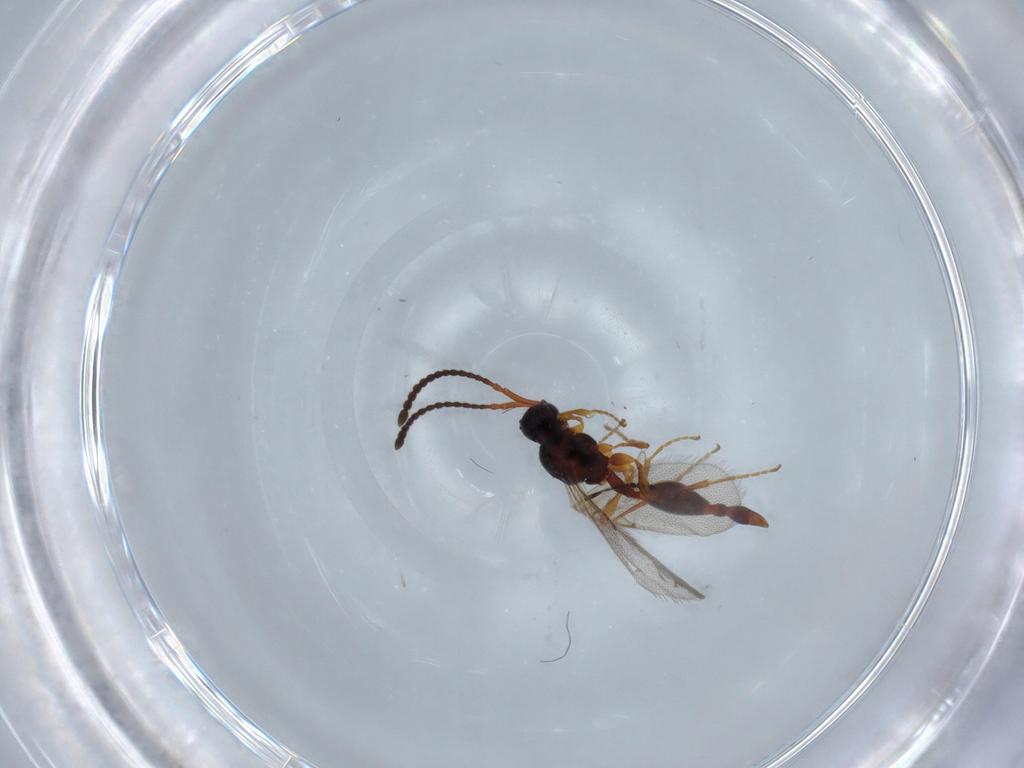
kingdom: Animalia
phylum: Arthropoda
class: Insecta
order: Hymenoptera
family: Diapriidae
